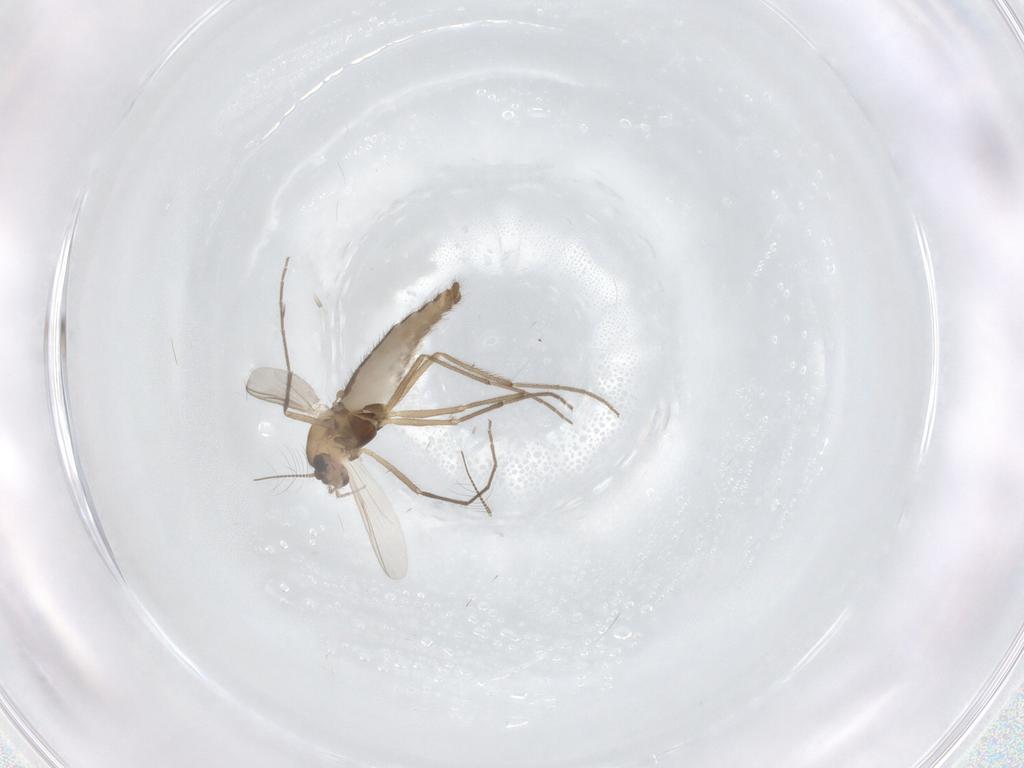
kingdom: Animalia
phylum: Arthropoda
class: Insecta
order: Diptera
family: Chironomidae
